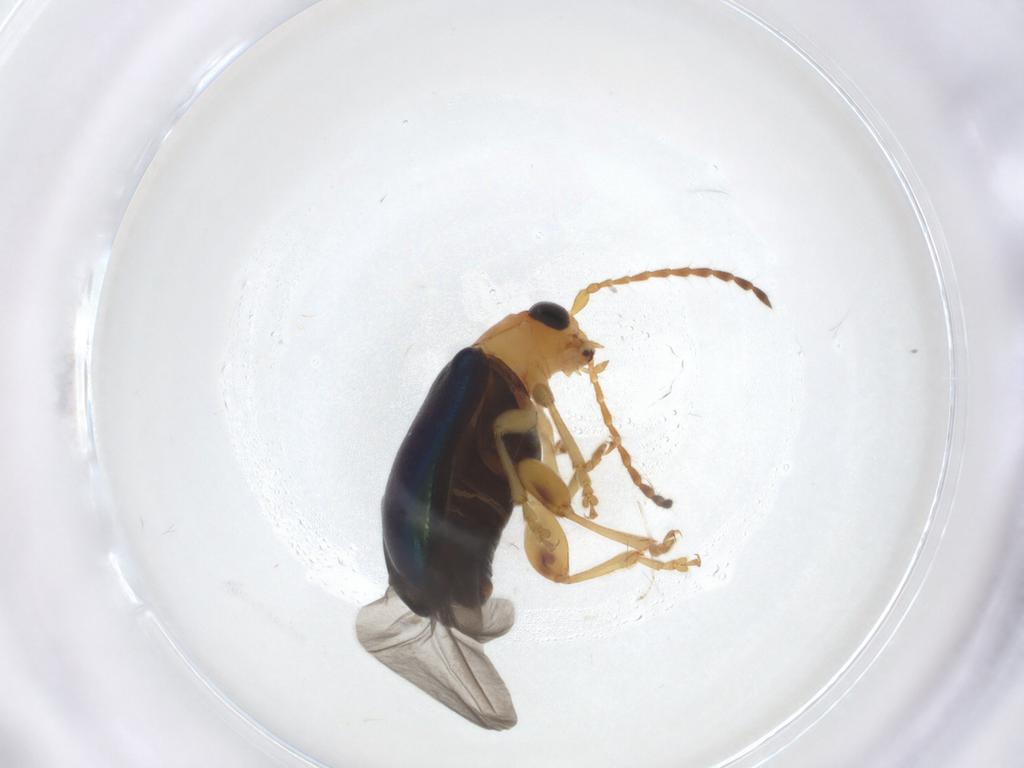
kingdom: Animalia
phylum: Arthropoda
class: Insecta
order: Coleoptera
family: Chrysomelidae
